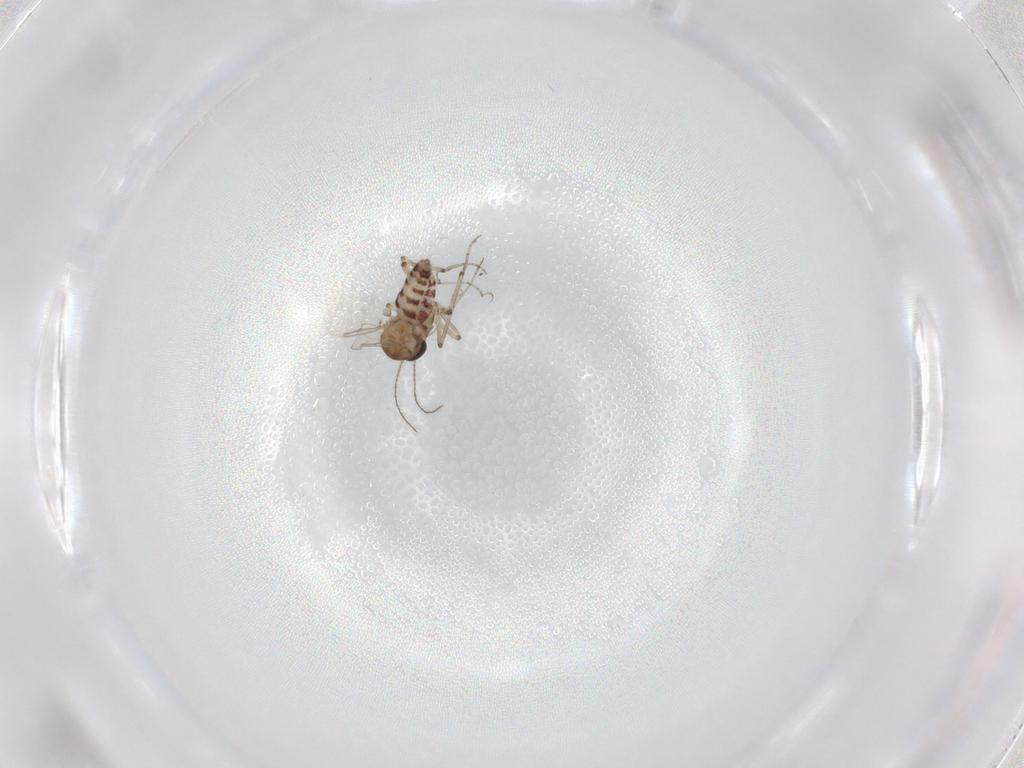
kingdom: Animalia
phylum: Arthropoda
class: Insecta
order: Diptera
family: Ceratopogonidae
